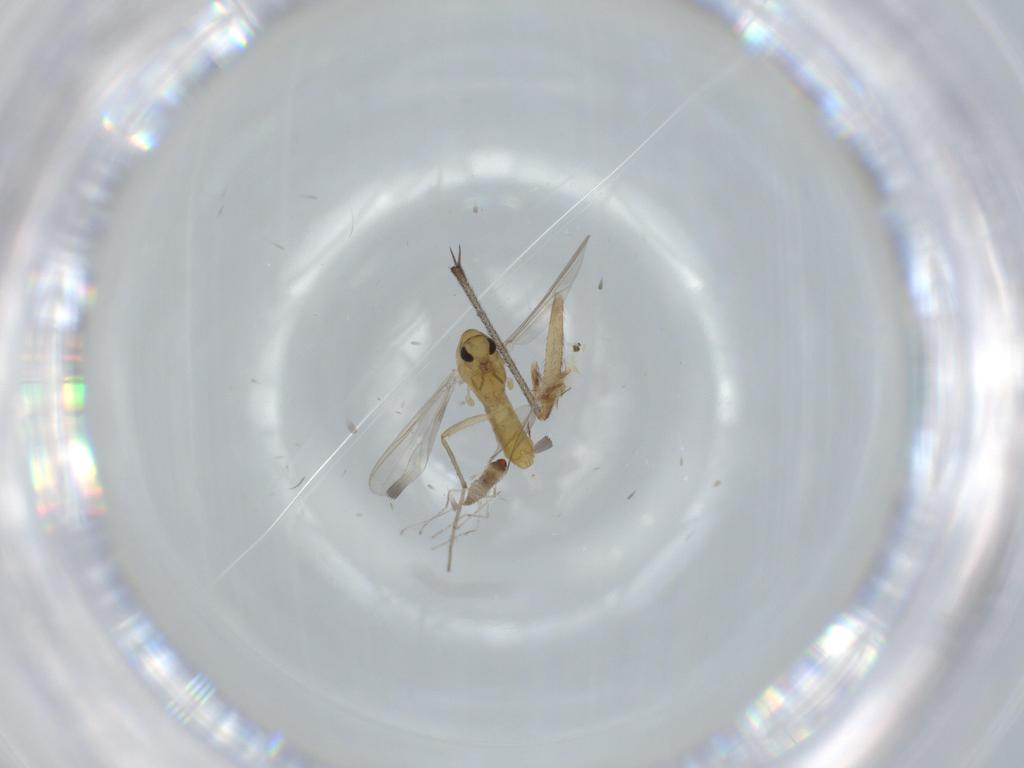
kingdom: Animalia
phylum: Arthropoda
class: Insecta
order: Diptera
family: Chironomidae
